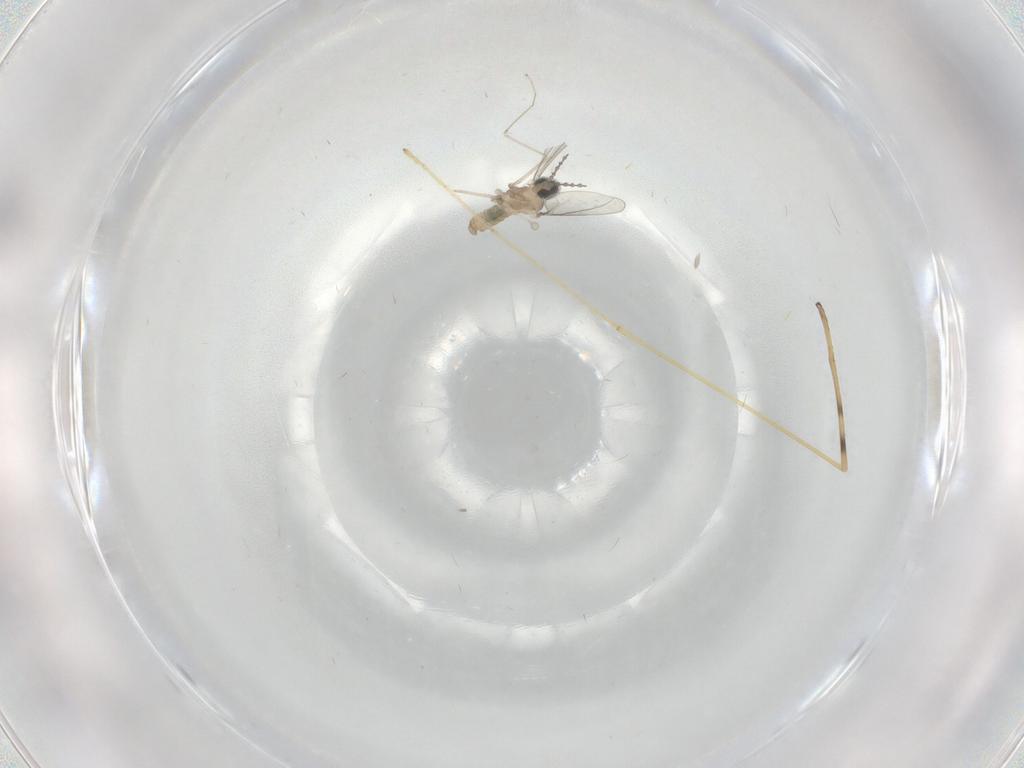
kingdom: Animalia
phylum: Arthropoda
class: Insecta
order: Diptera
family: Cecidomyiidae
